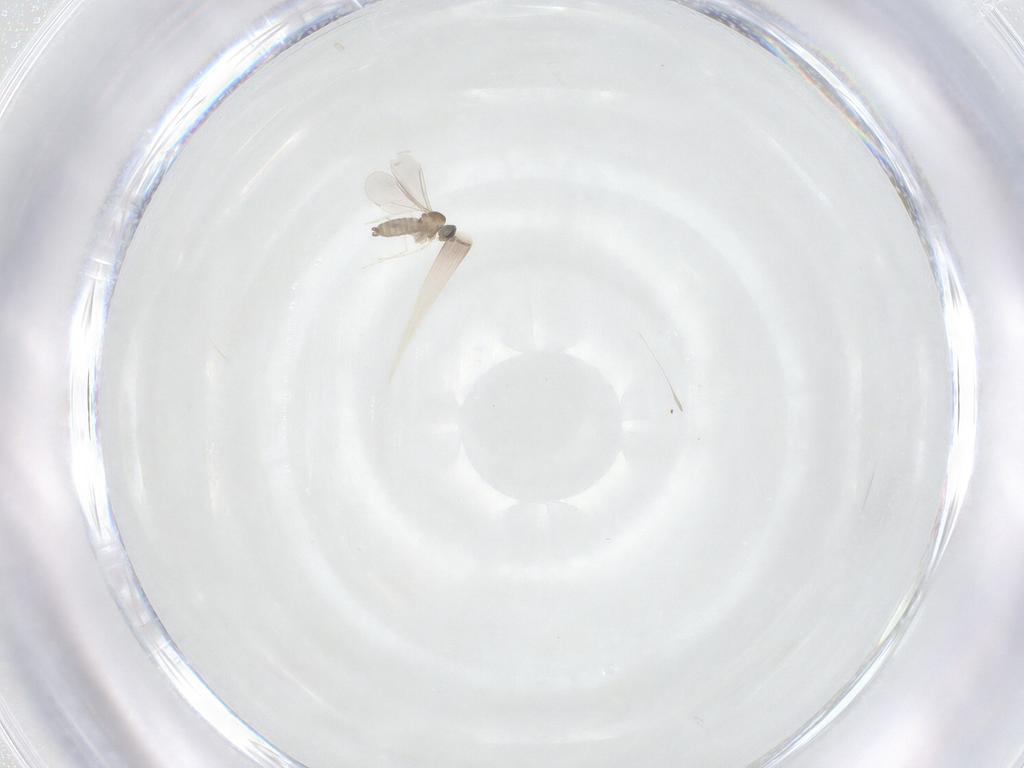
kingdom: Animalia
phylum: Arthropoda
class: Insecta
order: Diptera
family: Cecidomyiidae
